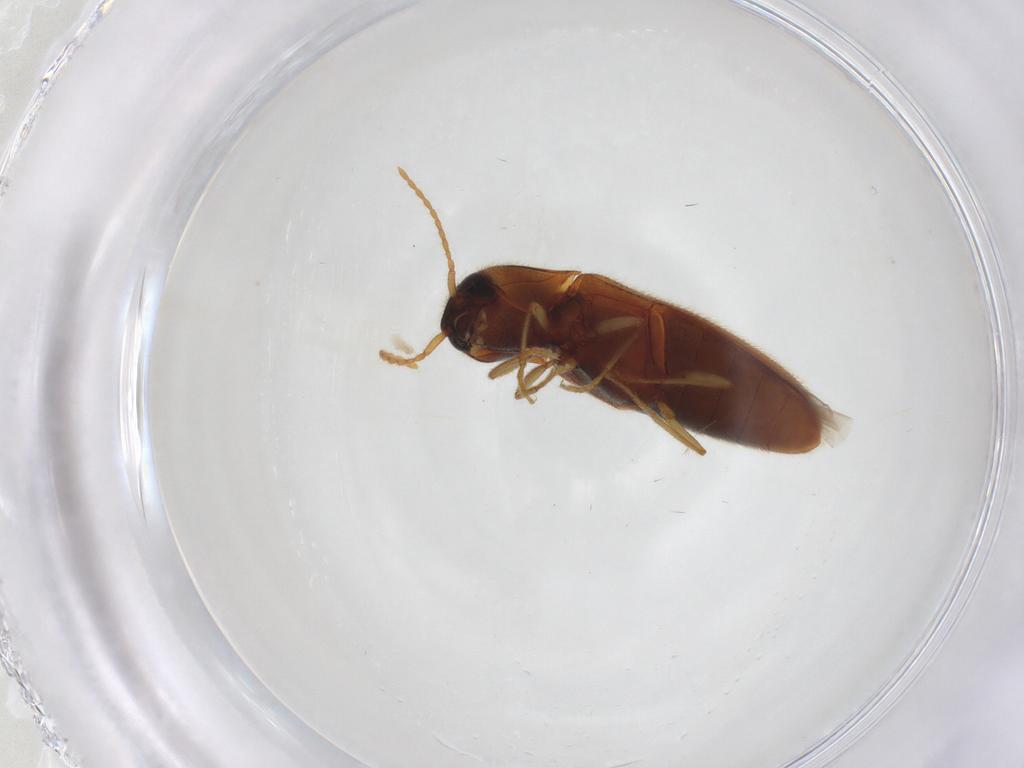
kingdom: Animalia
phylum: Arthropoda
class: Insecta
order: Coleoptera
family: Elateridae
